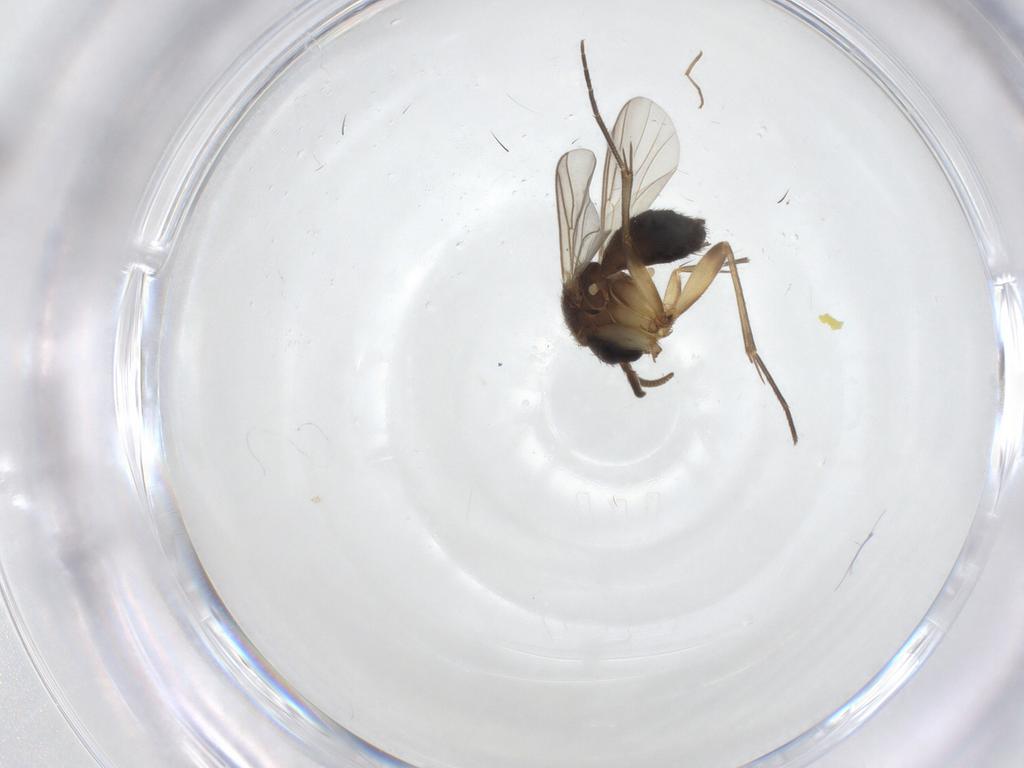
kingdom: Animalia
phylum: Arthropoda
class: Insecta
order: Diptera
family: Mycetophilidae
